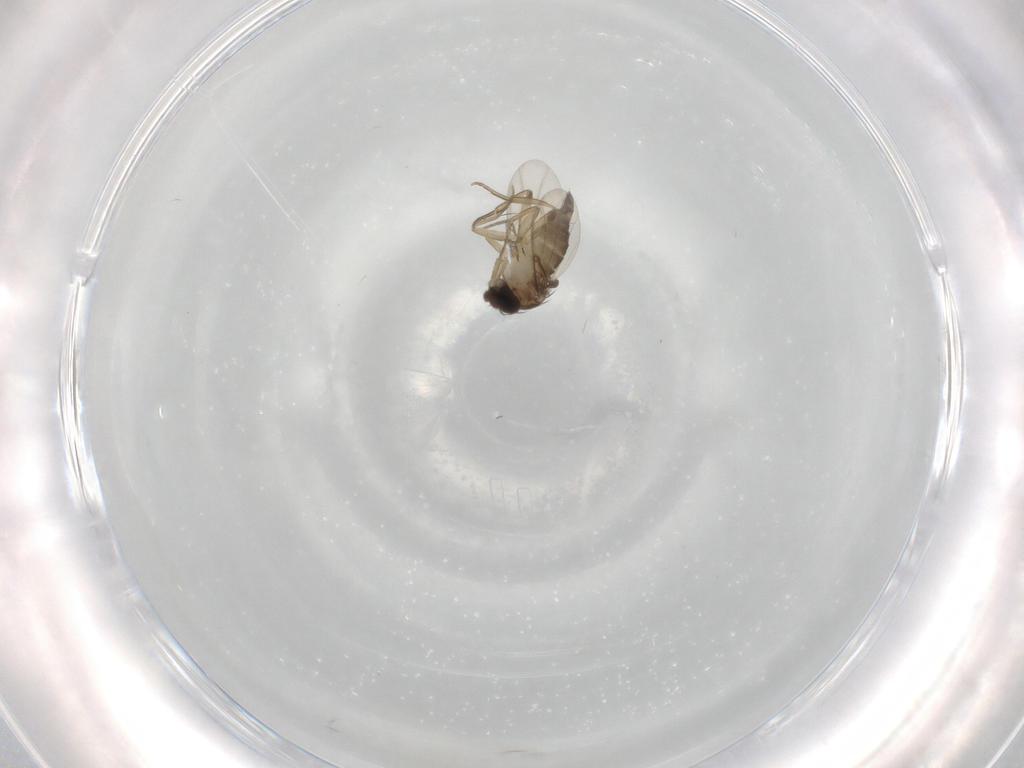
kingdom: Animalia
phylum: Arthropoda
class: Insecta
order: Diptera
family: Phoridae
